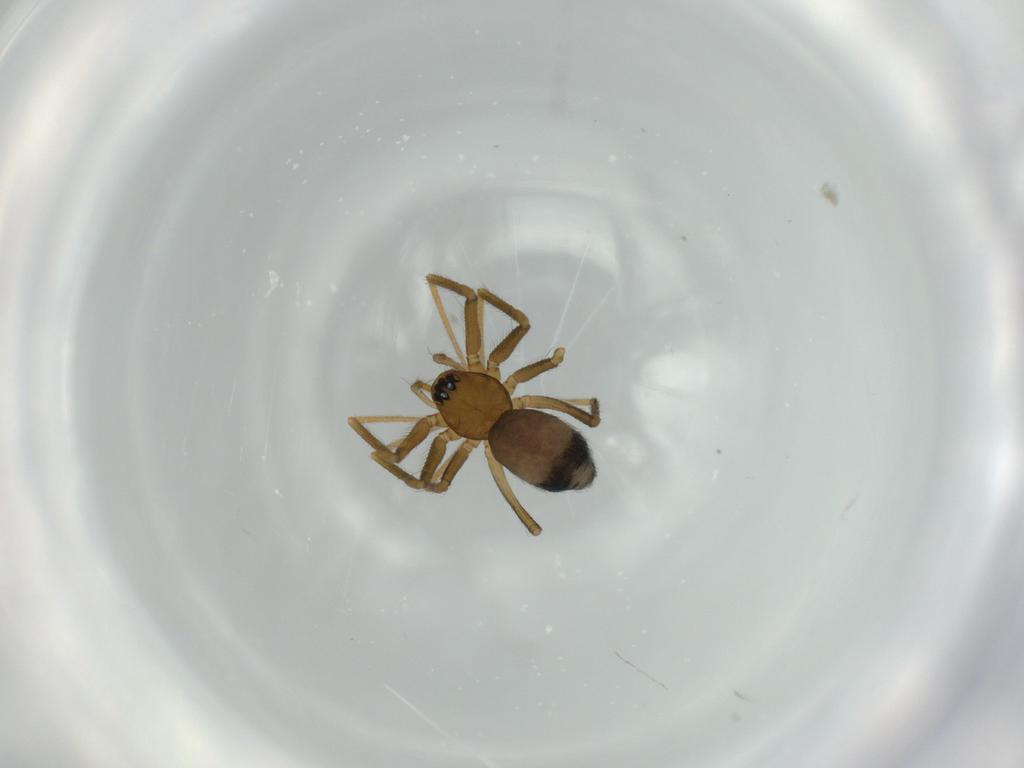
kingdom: Animalia
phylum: Arthropoda
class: Arachnida
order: Araneae
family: Linyphiidae
